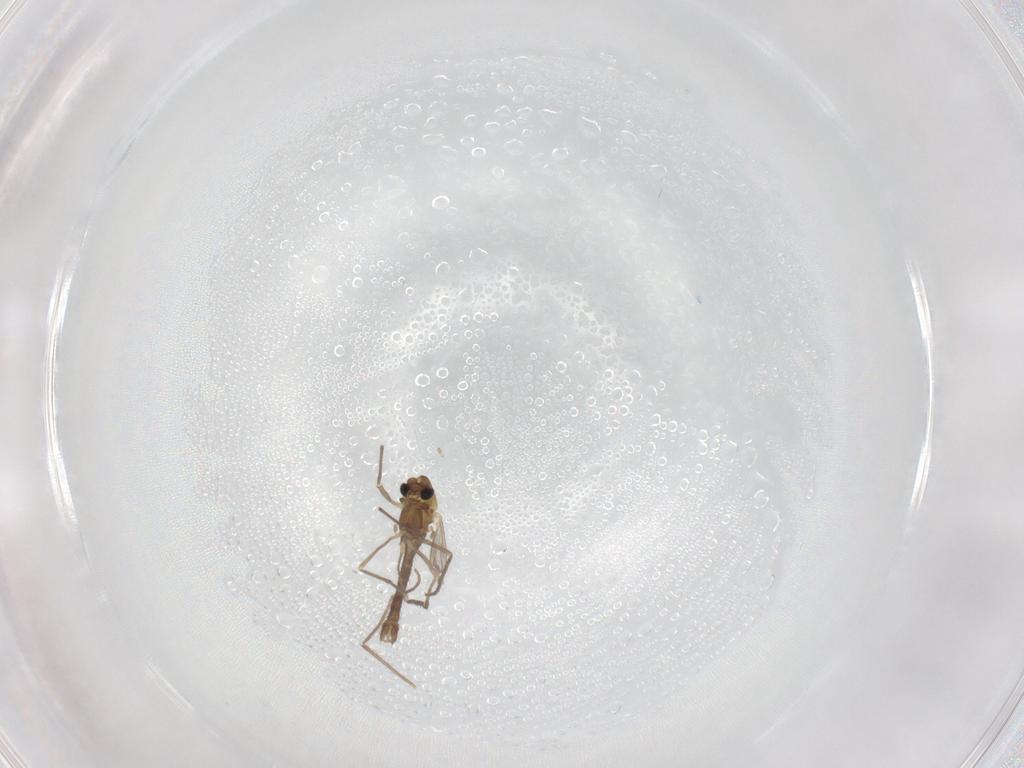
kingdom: Animalia
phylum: Arthropoda
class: Insecta
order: Diptera
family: Chironomidae
